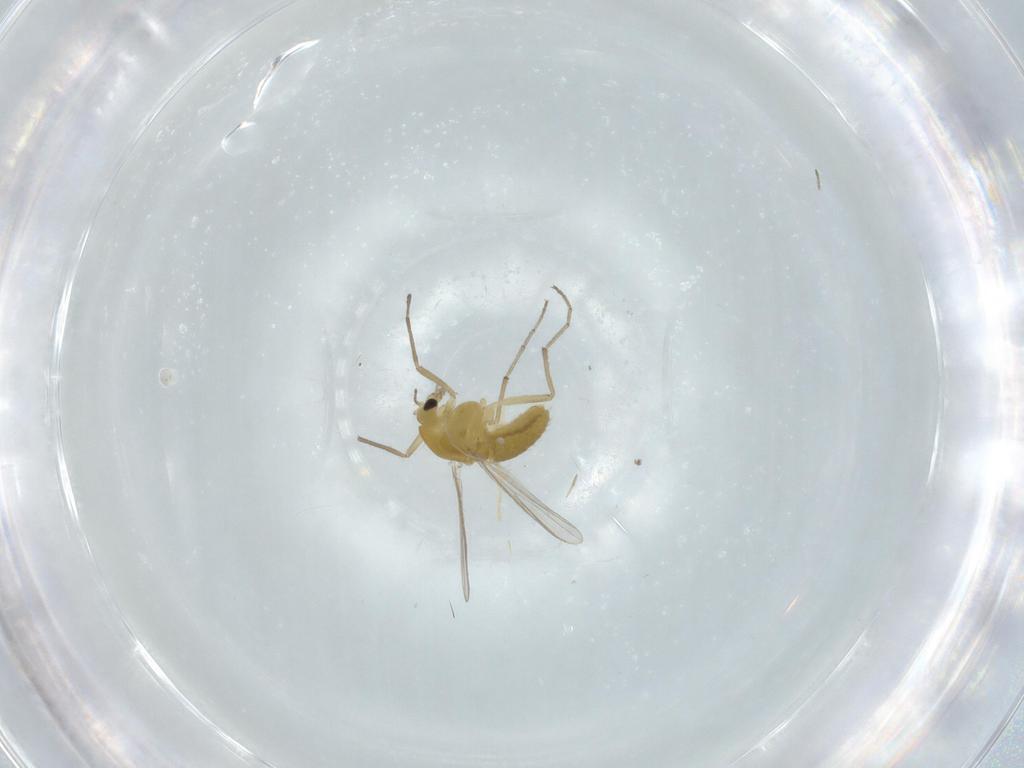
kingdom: Animalia
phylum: Arthropoda
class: Insecta
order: Diptera
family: Chironomidae
